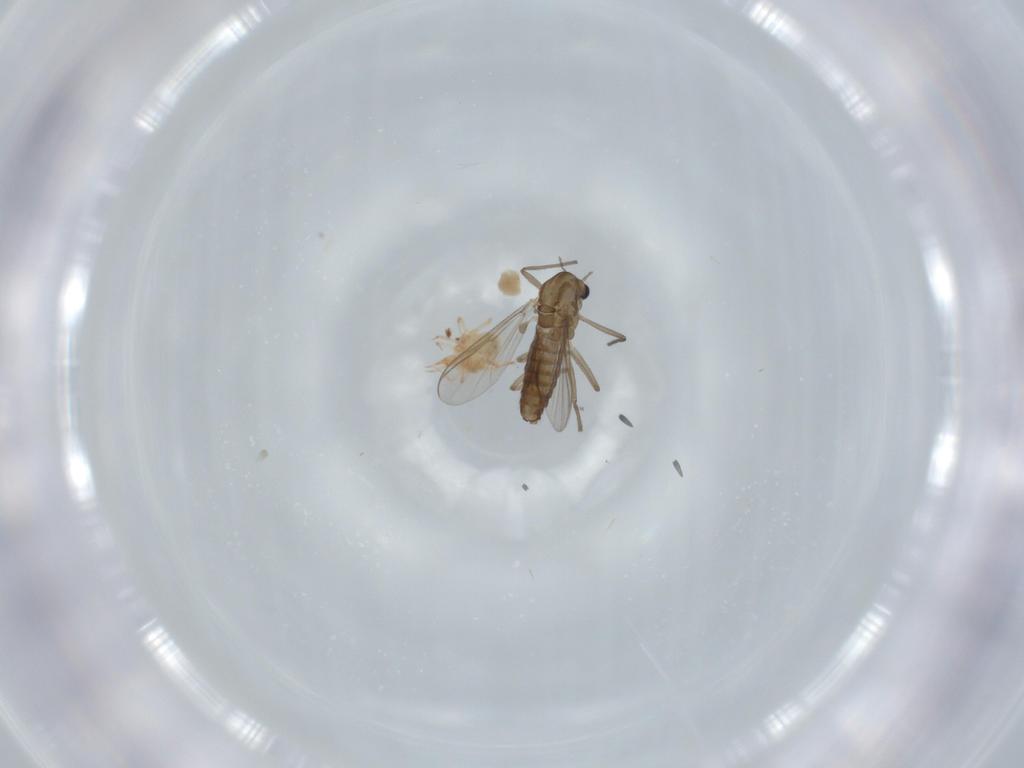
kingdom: Animalia
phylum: Arthropoda
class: Insecta
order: Diptera
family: Chironomidae
